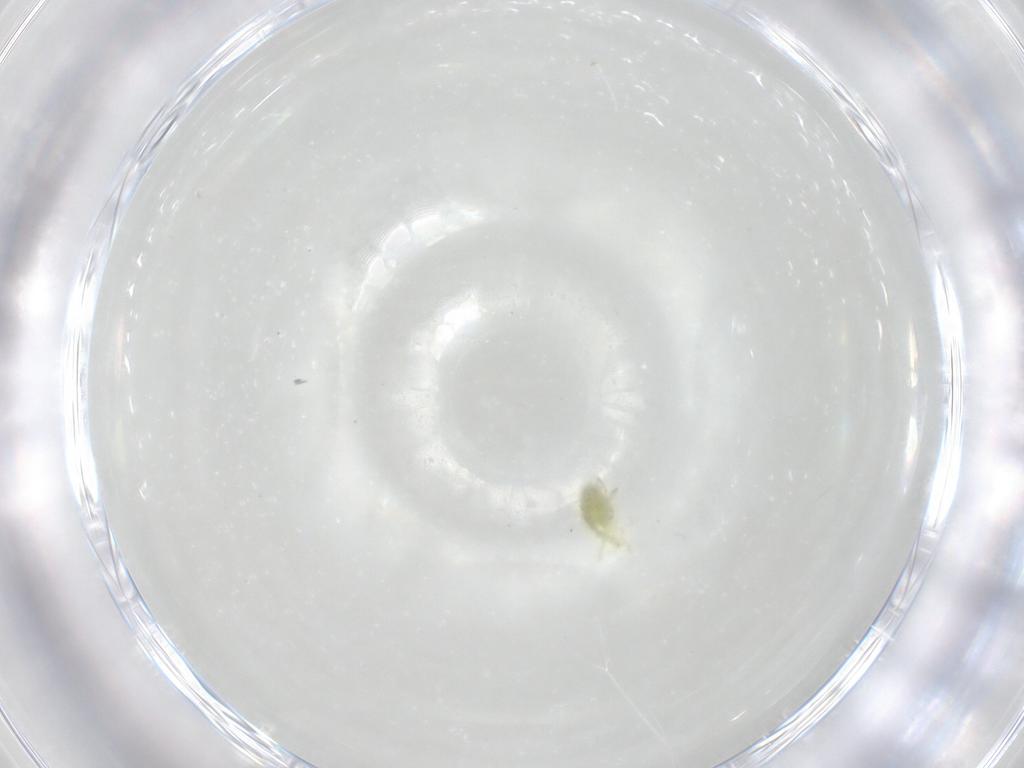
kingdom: Animalia
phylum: Arthropoda
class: Arachnida
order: Trombidiformes
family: Erythraeidae
